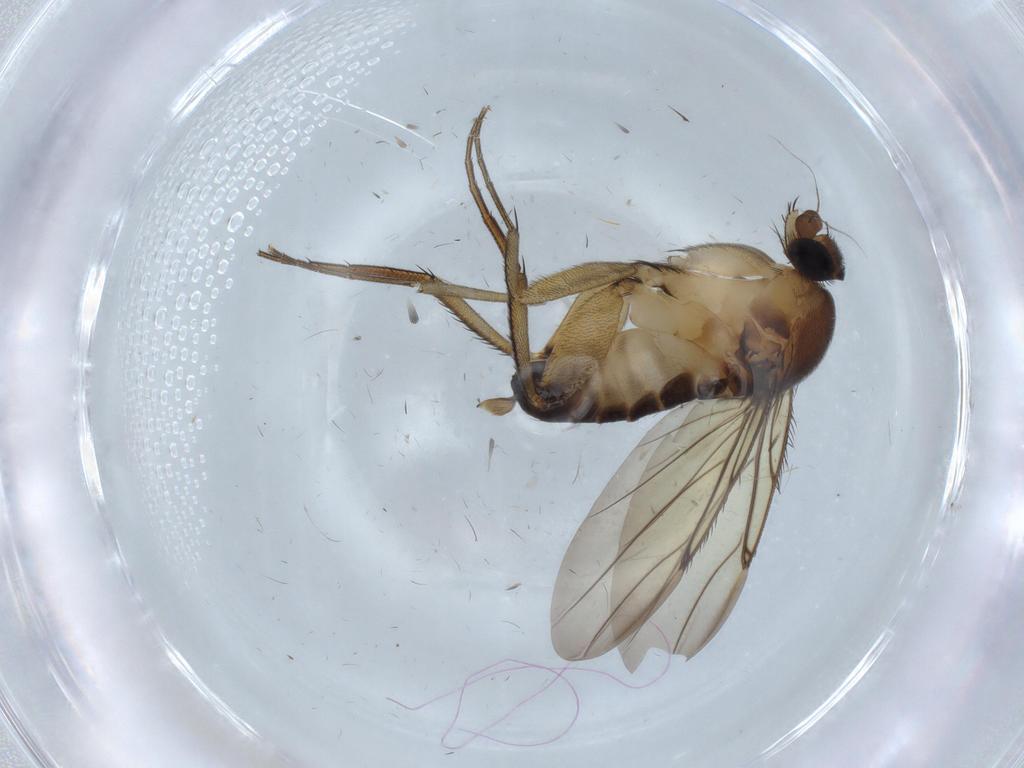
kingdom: Animalia
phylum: Arthropoda
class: Insecta
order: Diptera
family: Phoridae
